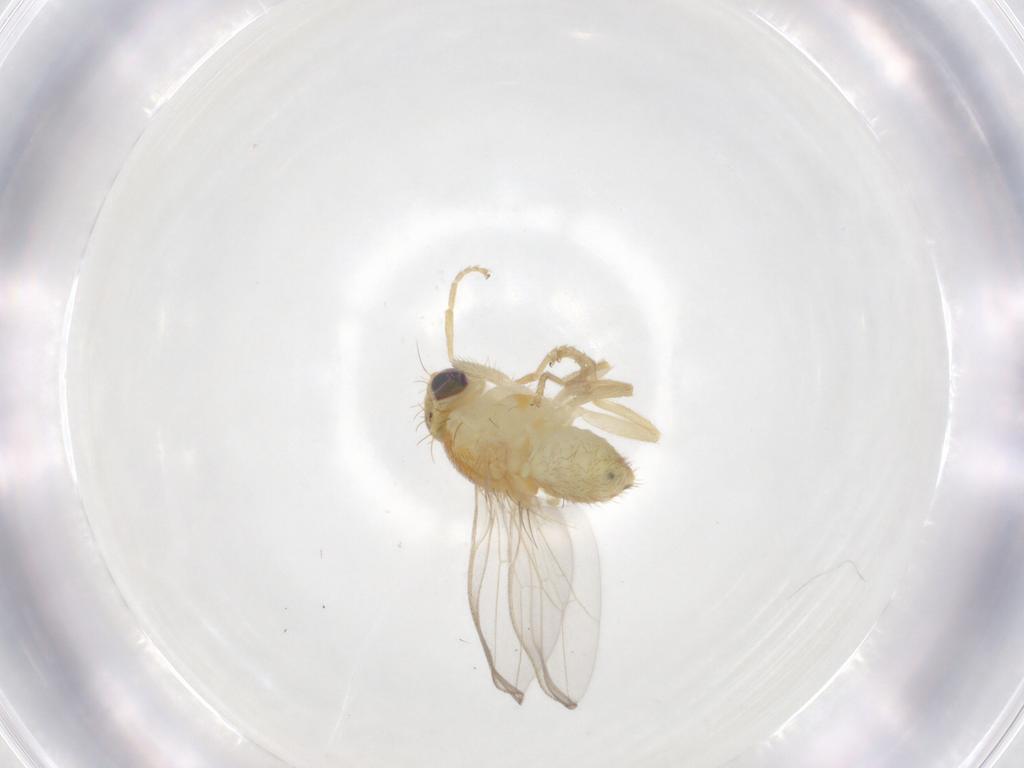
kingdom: Animalia
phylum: Arthropoda
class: Insecta
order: Diptera
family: Chyromyidae
